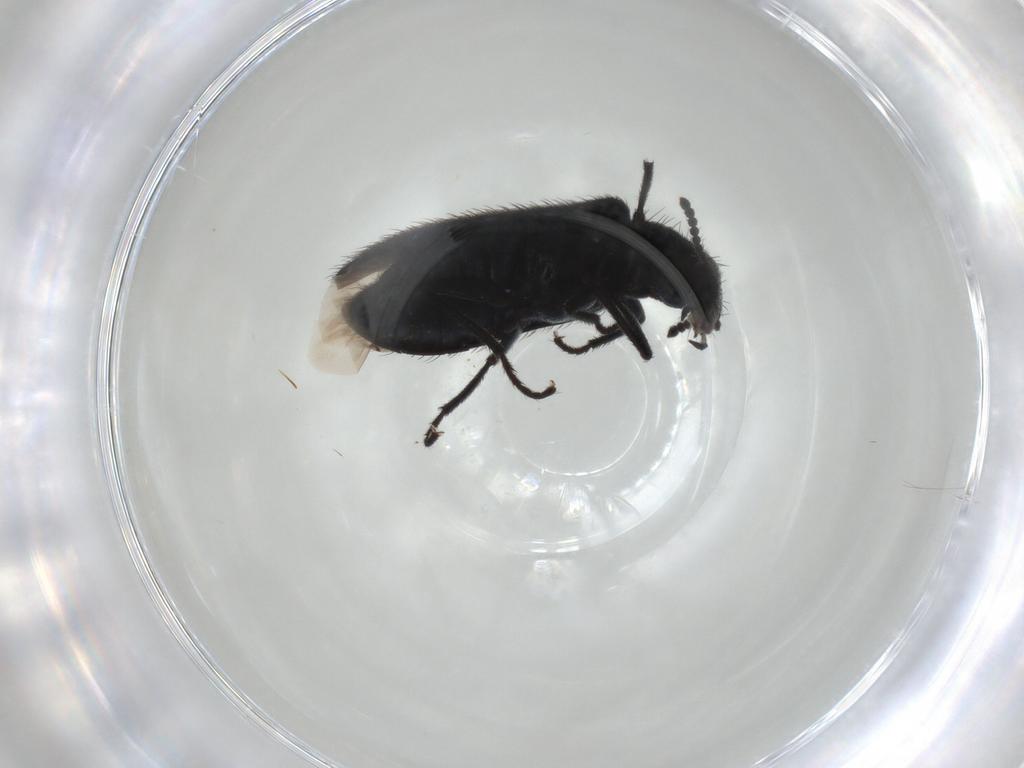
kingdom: Animalia
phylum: Arthropoda
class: Insecta
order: Coleoptera
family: Melyridae
